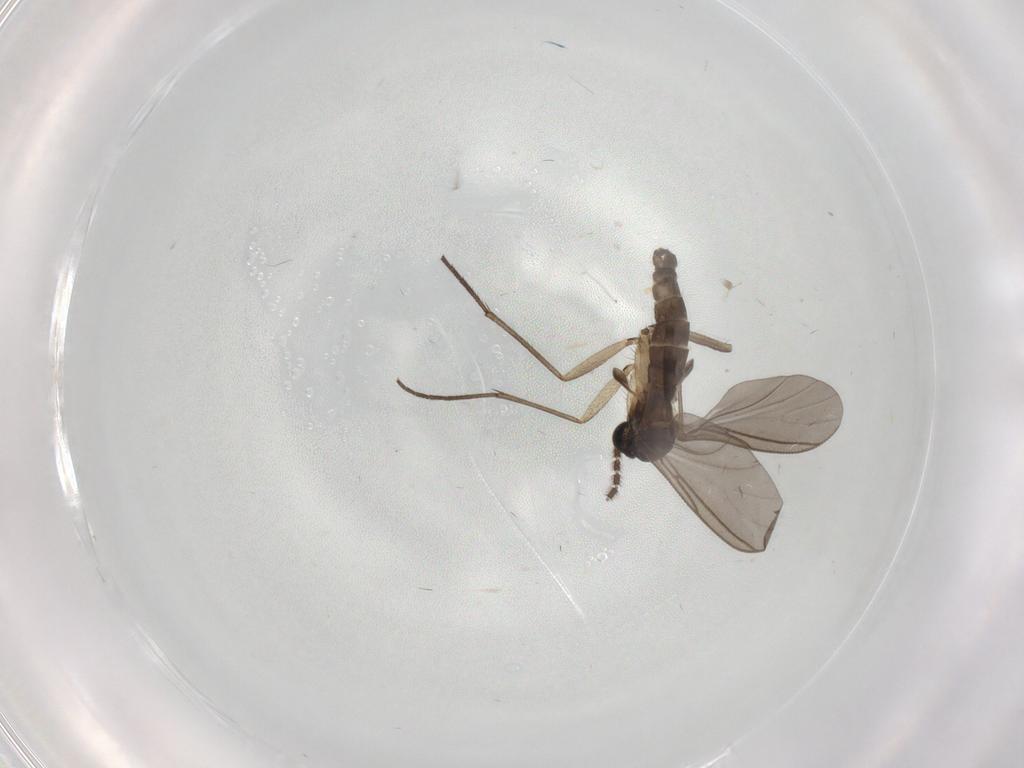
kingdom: Animalia
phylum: Arthropoda
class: Insecta
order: Diptera
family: Sciaridae
